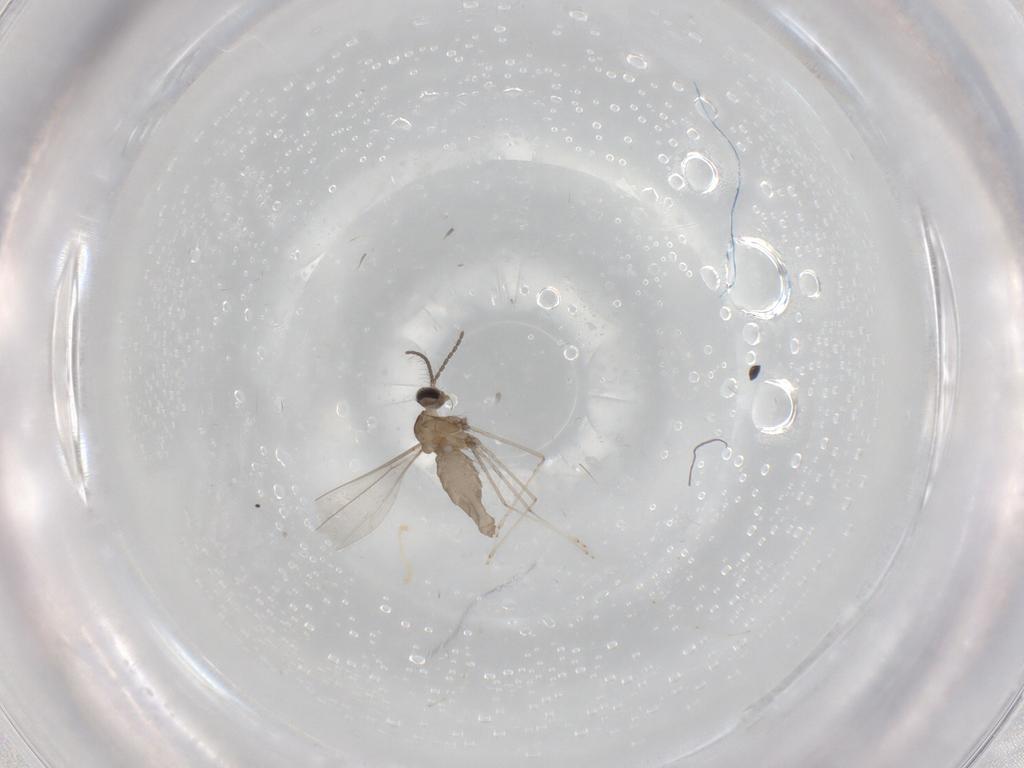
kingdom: Animalia
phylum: Arthropoda
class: Insecta
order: Diptera
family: Cecidomyiidae
